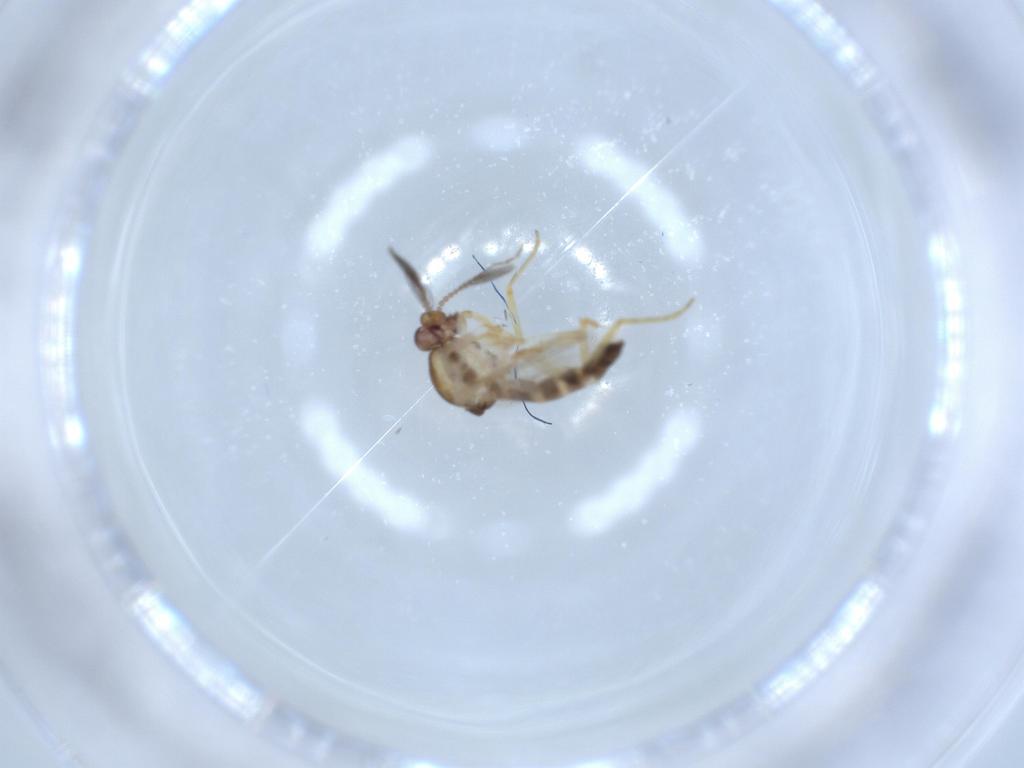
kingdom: Animalia
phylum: Arthropoda
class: Insecta
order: Diptera
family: Ceratopogonidae
